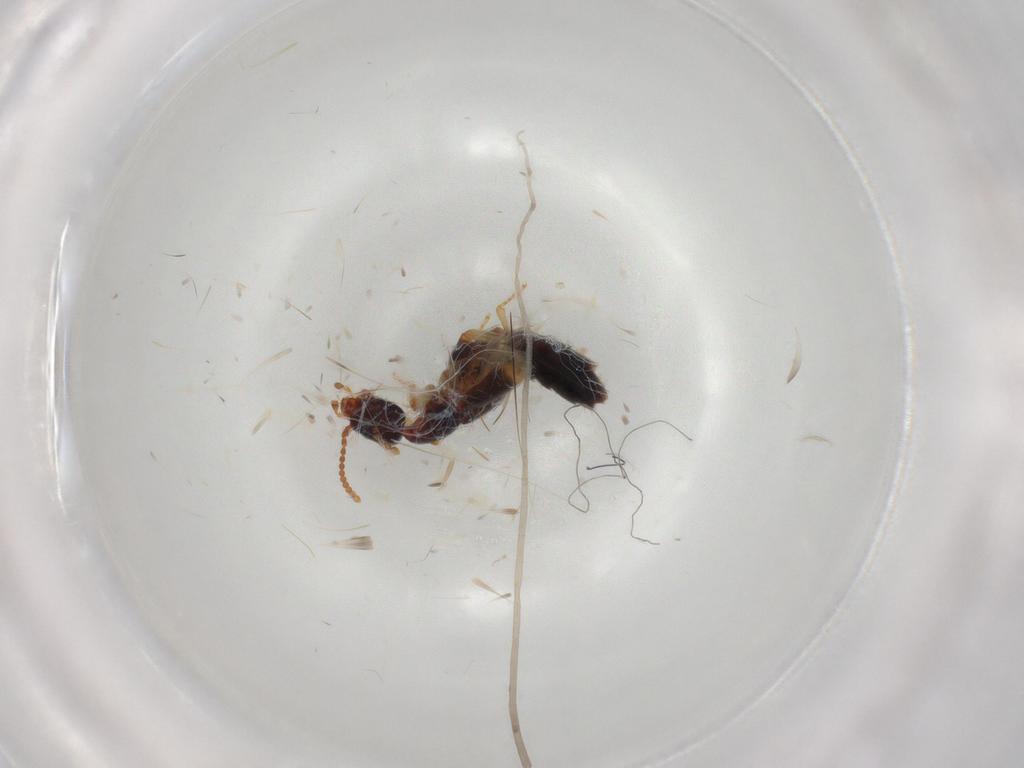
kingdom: Animalia
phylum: Arthropoda
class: Insecta
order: Coleoptera
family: Staphylinidae
